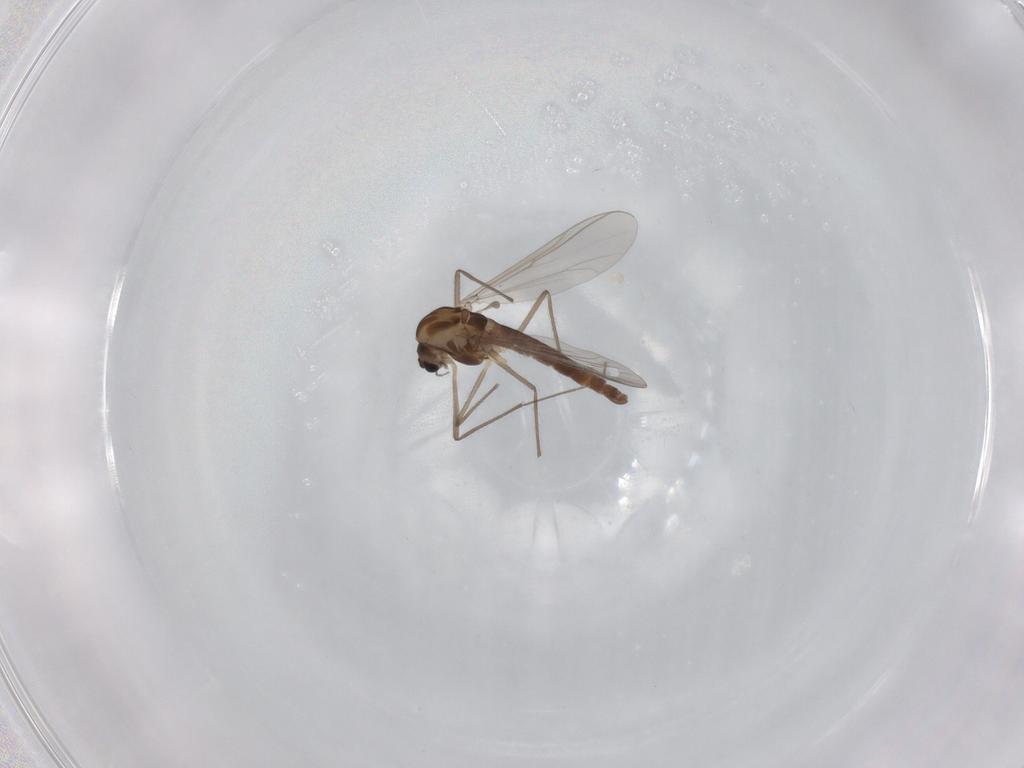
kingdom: Animalia
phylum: Arthropoda
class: Insecta
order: Diptera
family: Chironomidae
